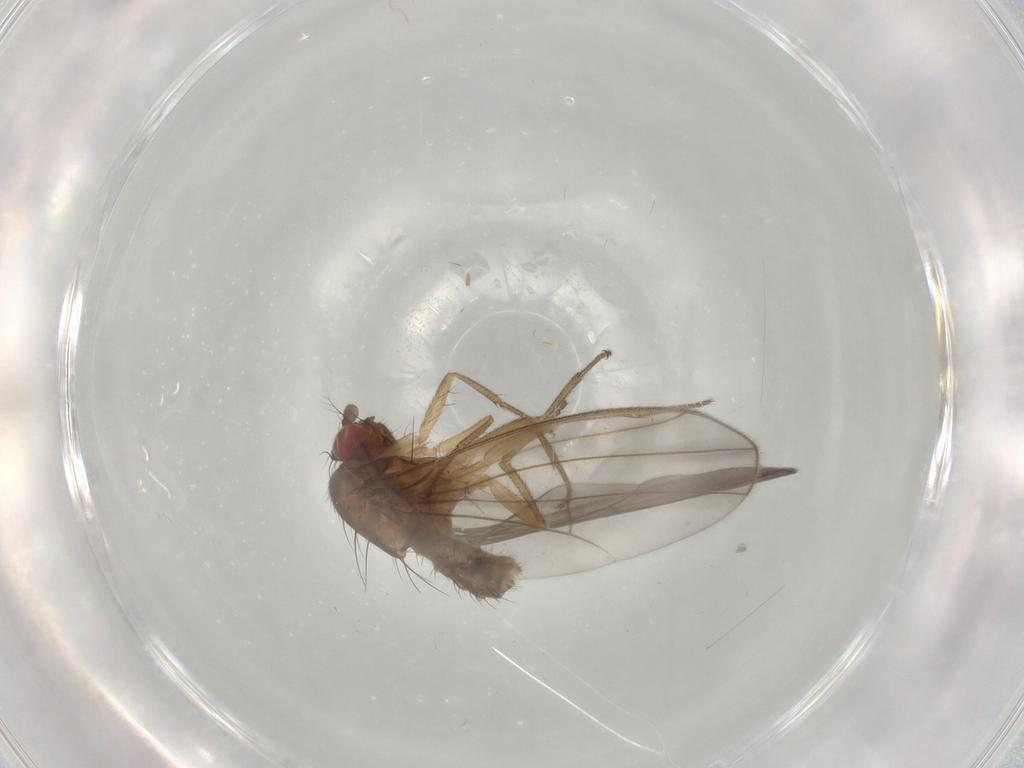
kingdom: Animalia
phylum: Arthropoda
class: Insecta
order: Diptera
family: Drosophilidae
